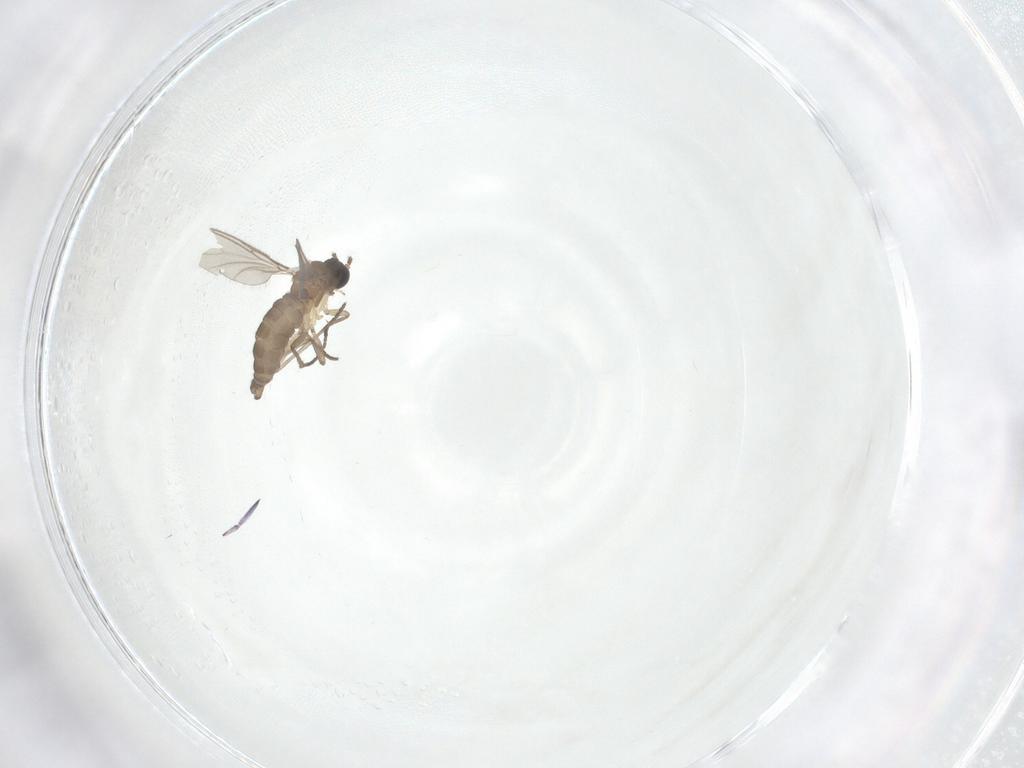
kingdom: Animalia
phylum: Arthropoda
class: Insecta
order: Diptera
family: Sciaridae
